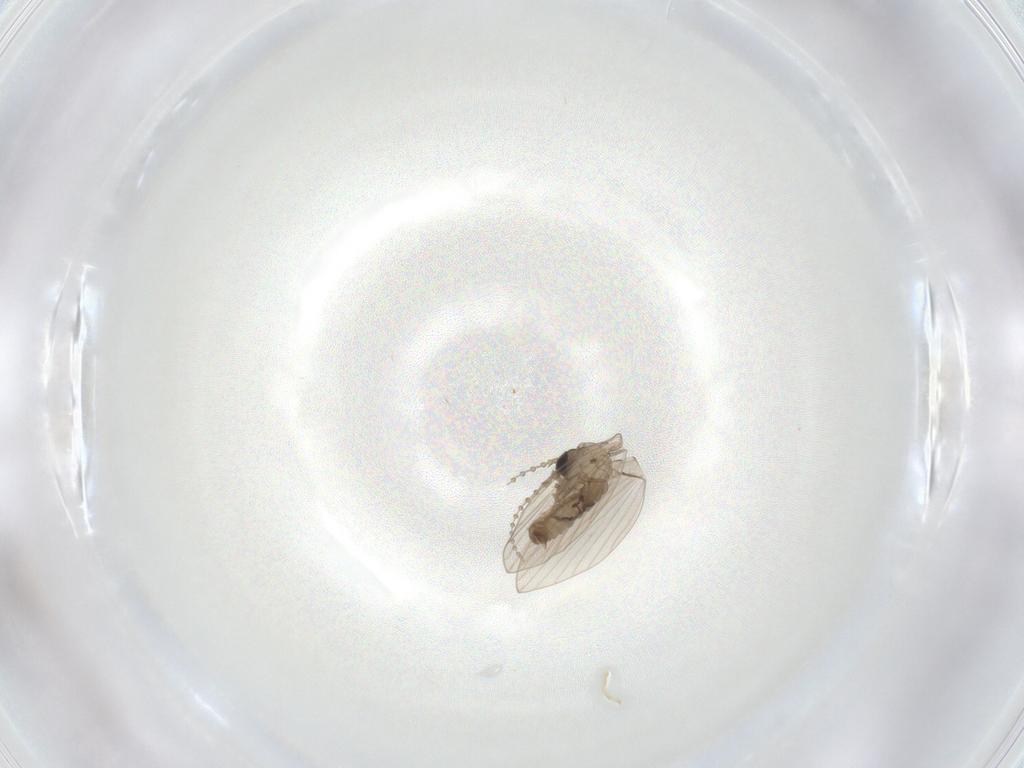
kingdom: Animalia
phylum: Arthropoda
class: Insecta
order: Diptera
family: Psychodidae
